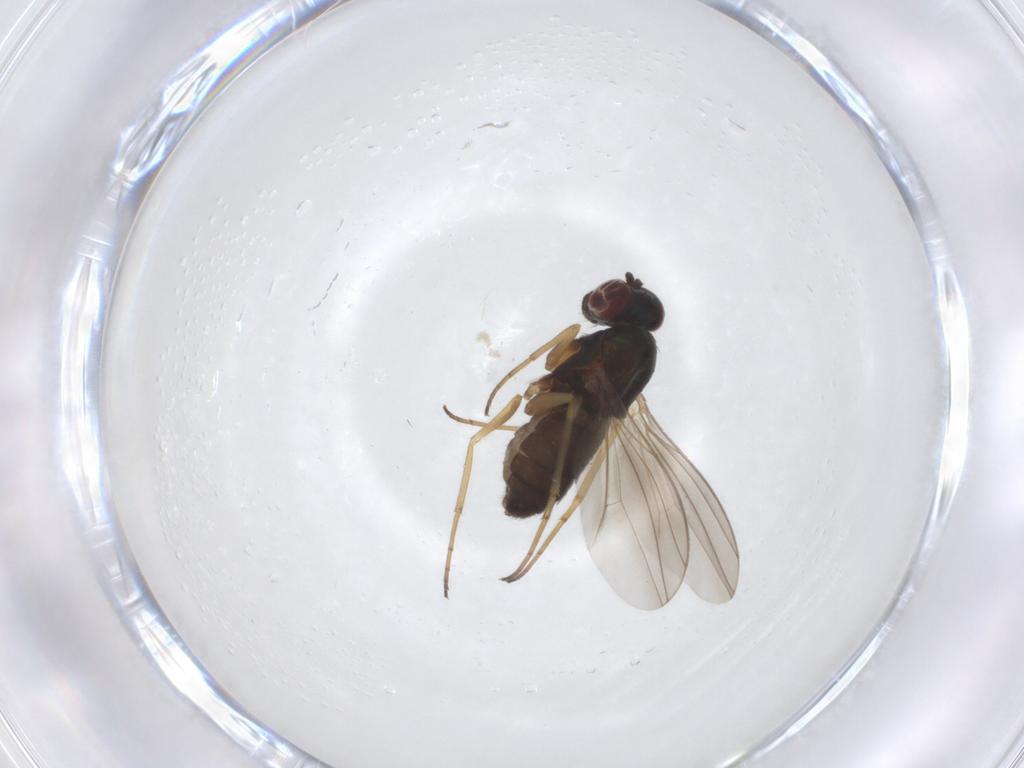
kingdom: Animalia
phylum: Arthropoda
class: Insecta
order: Diptera
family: Dolichopodidae
